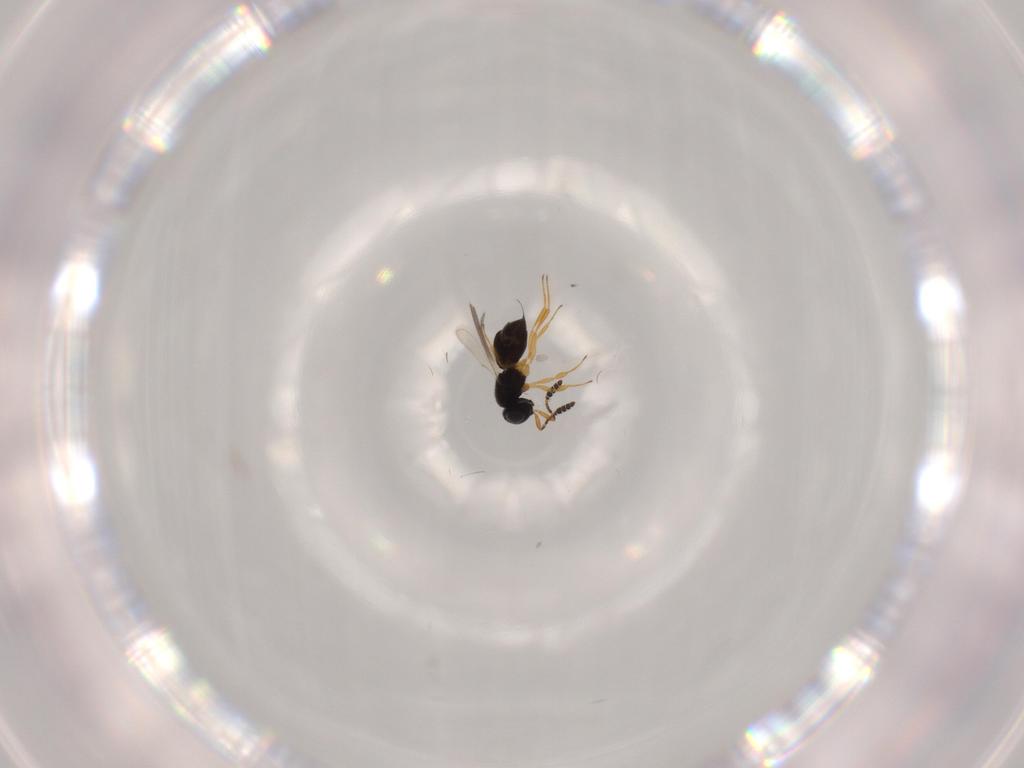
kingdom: Animalia
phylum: Arthropoda
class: Insecta
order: Hymenoptera
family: Scelionidae
